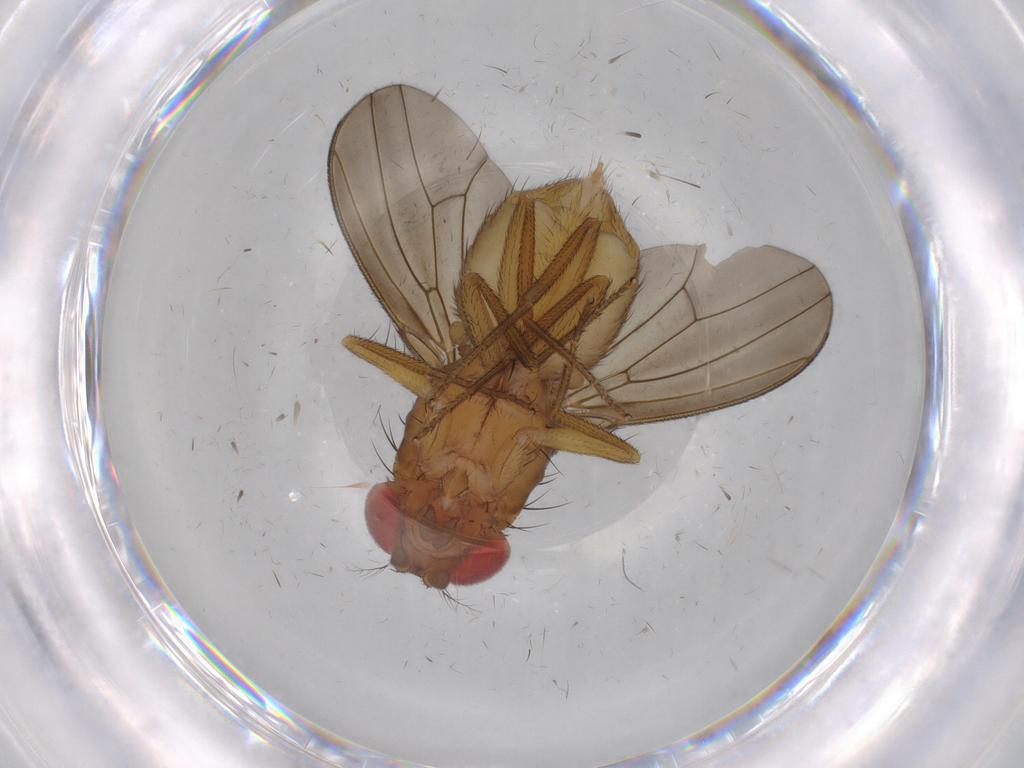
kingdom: Animalia
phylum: Arthropoda
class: Insecta
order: Diptera
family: Drosophilidae
